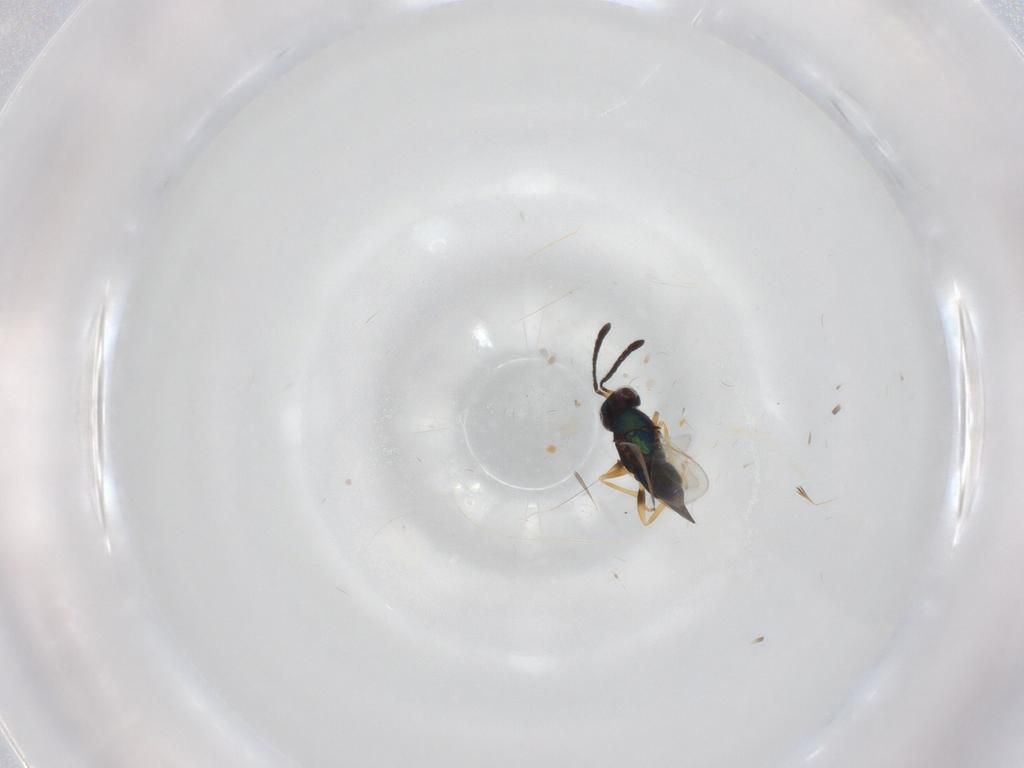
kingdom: Animalia
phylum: Arthropoda
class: Insecta
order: Hymenoptera
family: Encyrtidae
